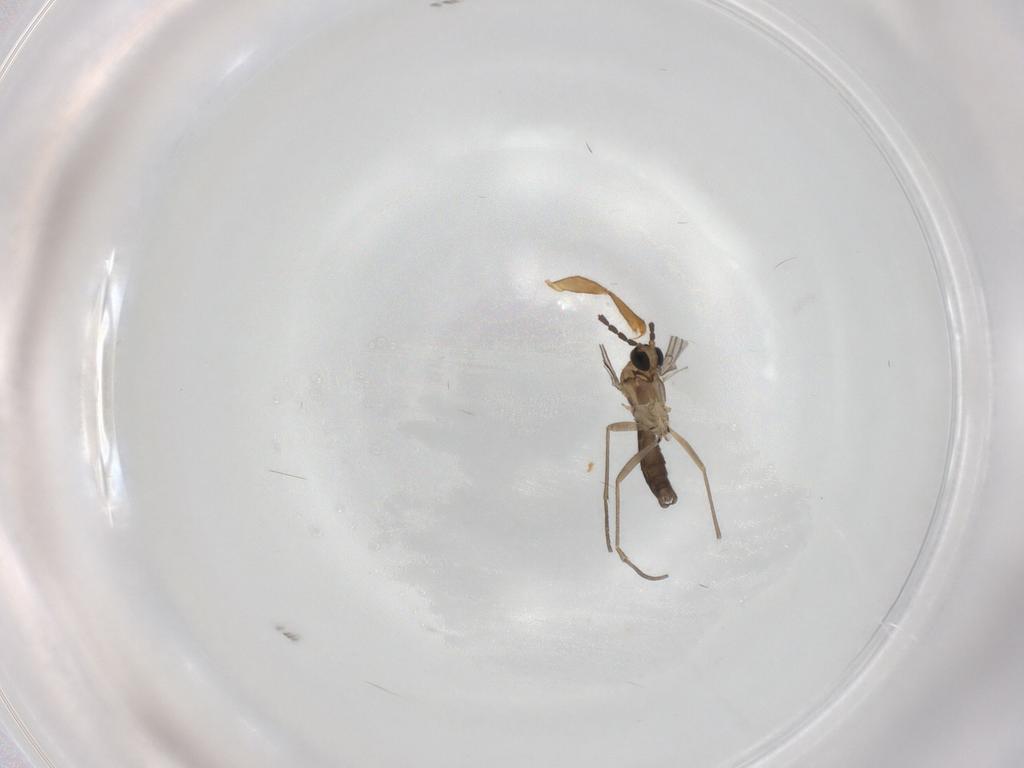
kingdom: Animalia
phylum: Arthropoda
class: Insecta
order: Diptera
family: Chironomidae
